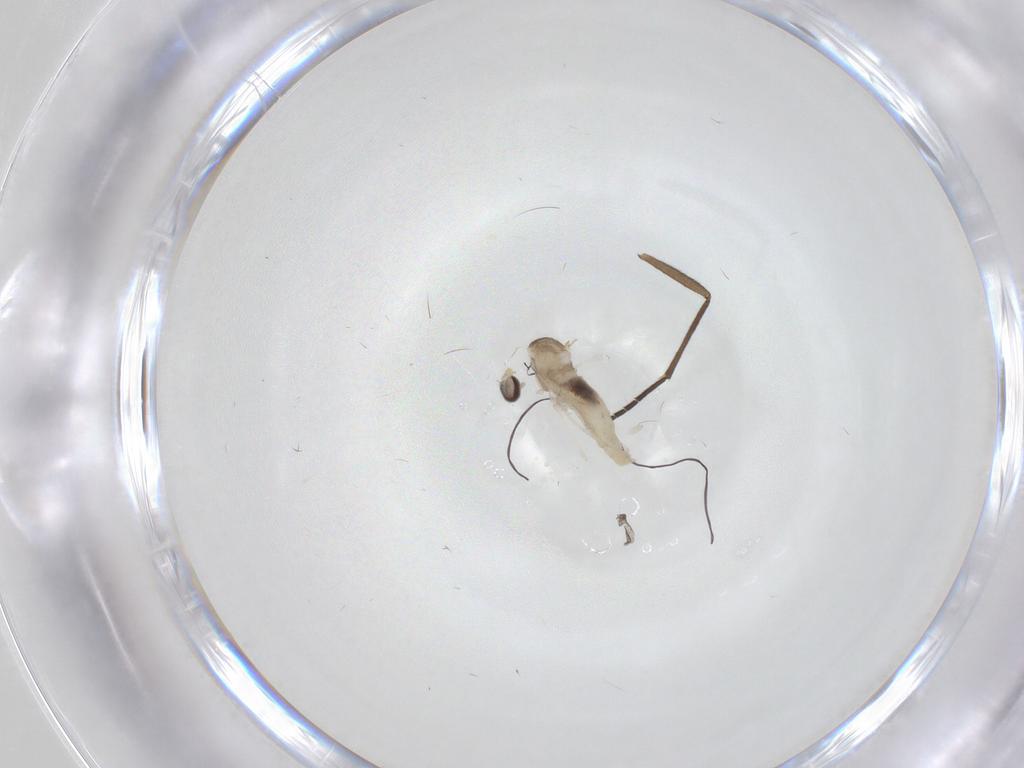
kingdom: Animalia
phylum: Arthropoda
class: Insecta
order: Diptera
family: Cecidomyiidae
